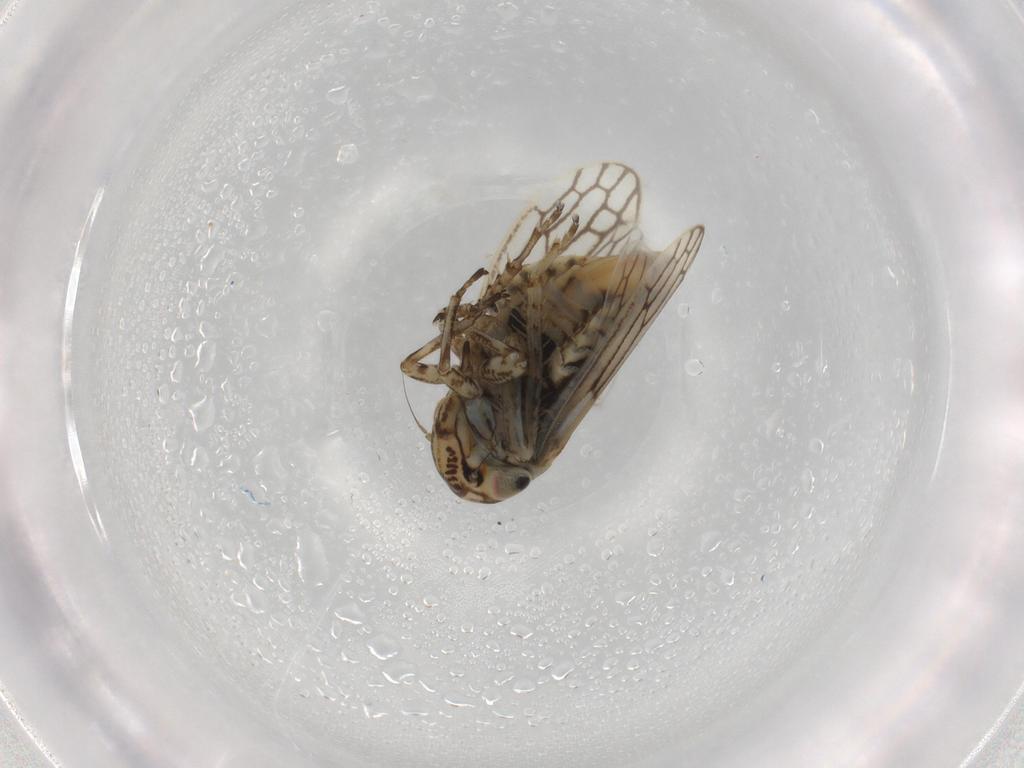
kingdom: Animalia
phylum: Arthropoda
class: Insecta
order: Hemiptera
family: Cicadellidae
